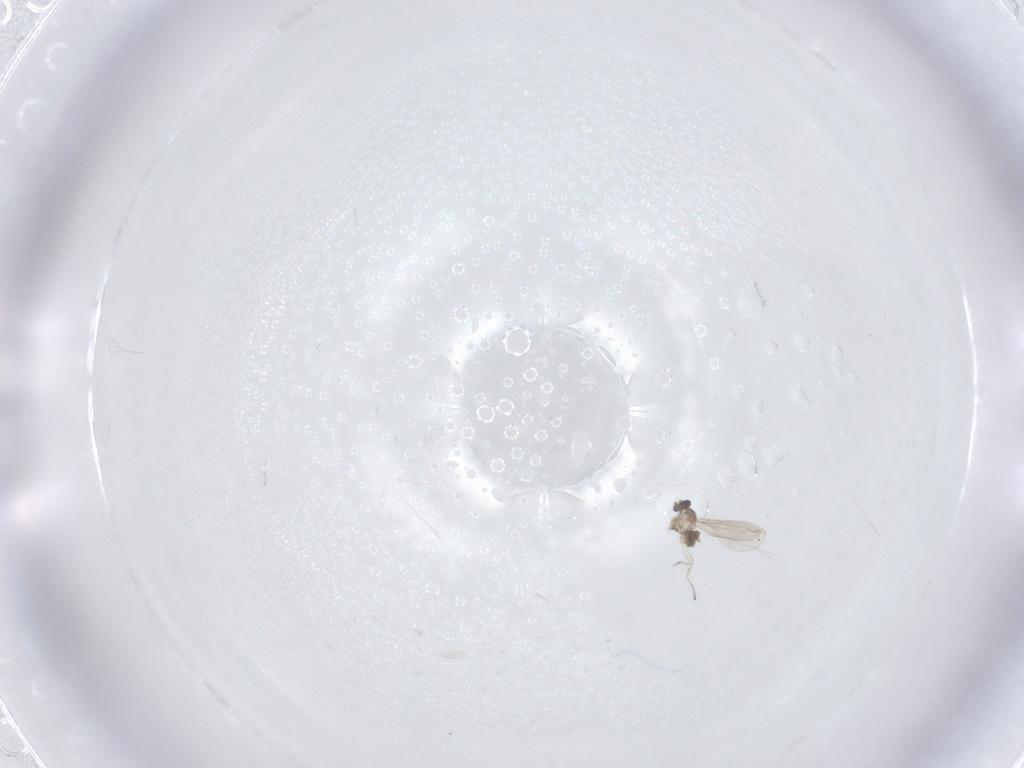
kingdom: Animalia
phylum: Arthropoda
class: Insecta
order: Diptera
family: Cecidomyiidae
